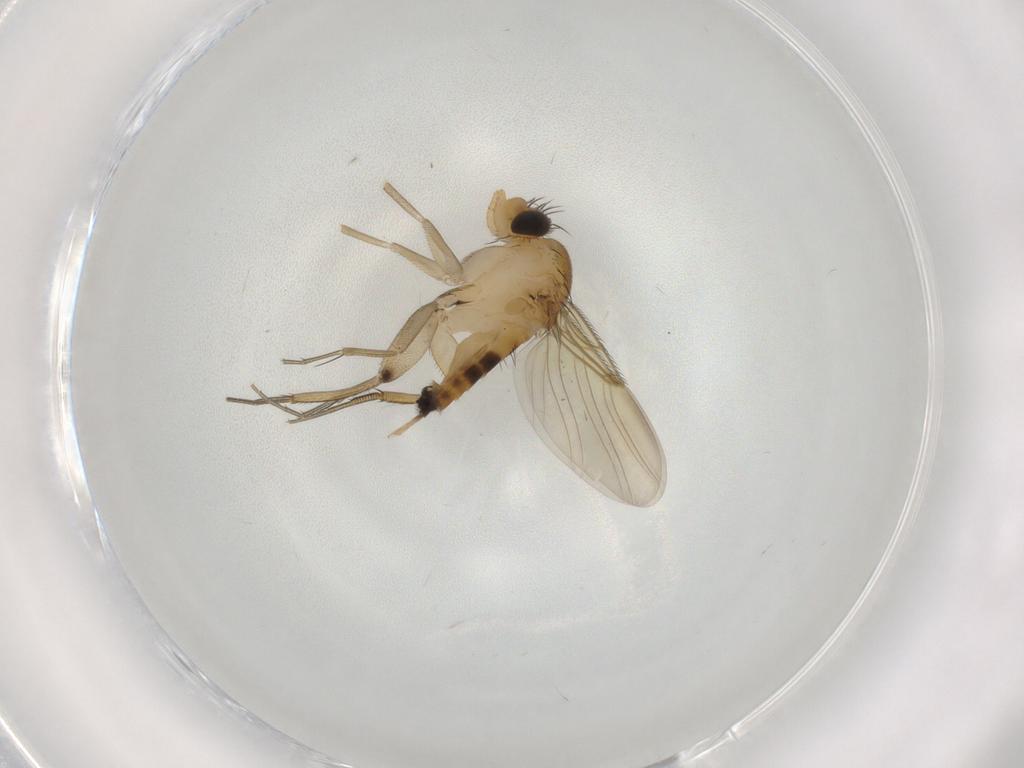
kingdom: Animalia
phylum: Arthropoda
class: Insecta
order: Diptera
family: Phoridae
